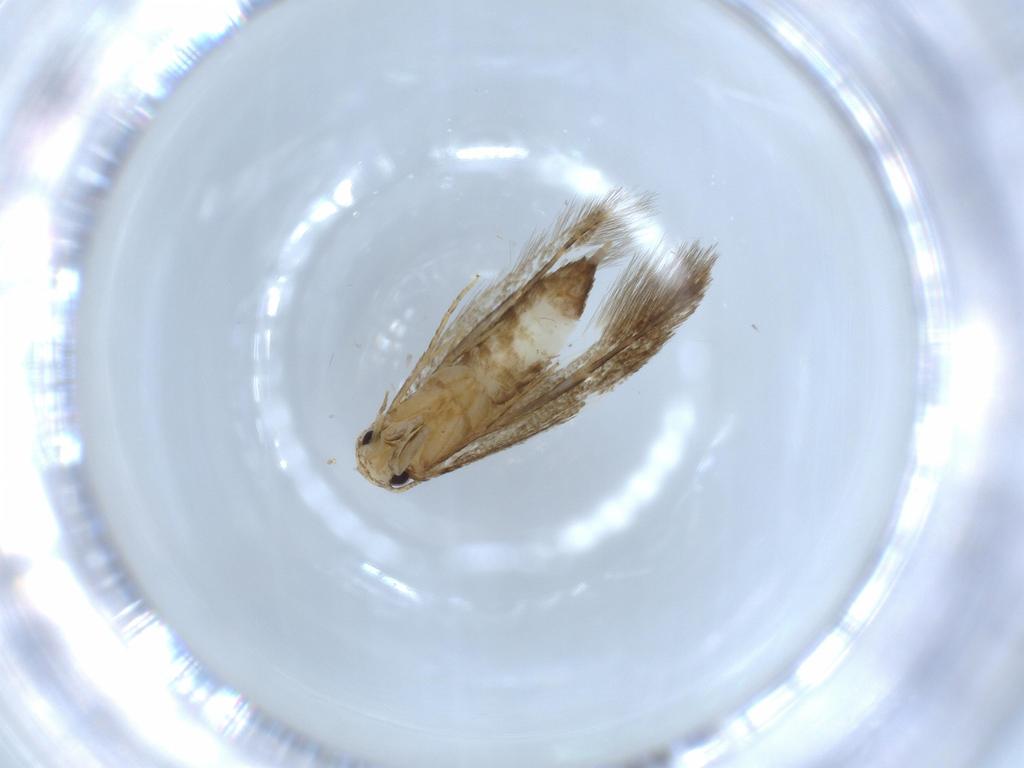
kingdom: Animalia
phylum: Arthropoda
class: Insecta
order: Lepidoptera
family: Tineidae
